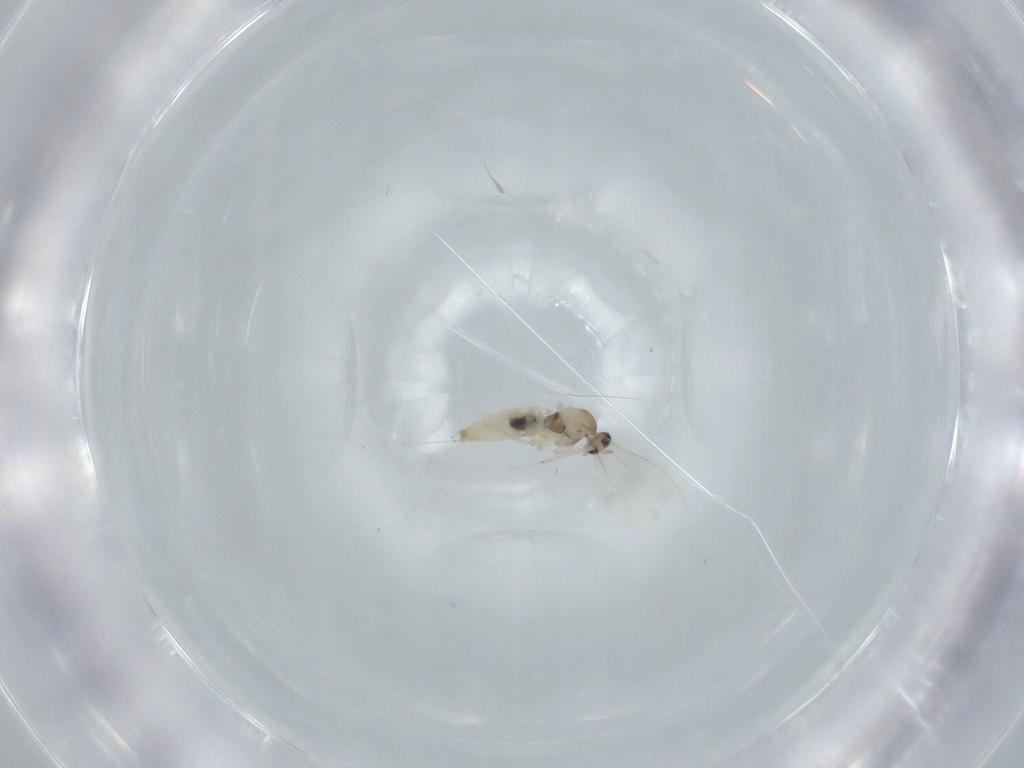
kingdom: Animalia
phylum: Arthropoda
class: Insecta
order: Diptera
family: Cecidomyiidae
